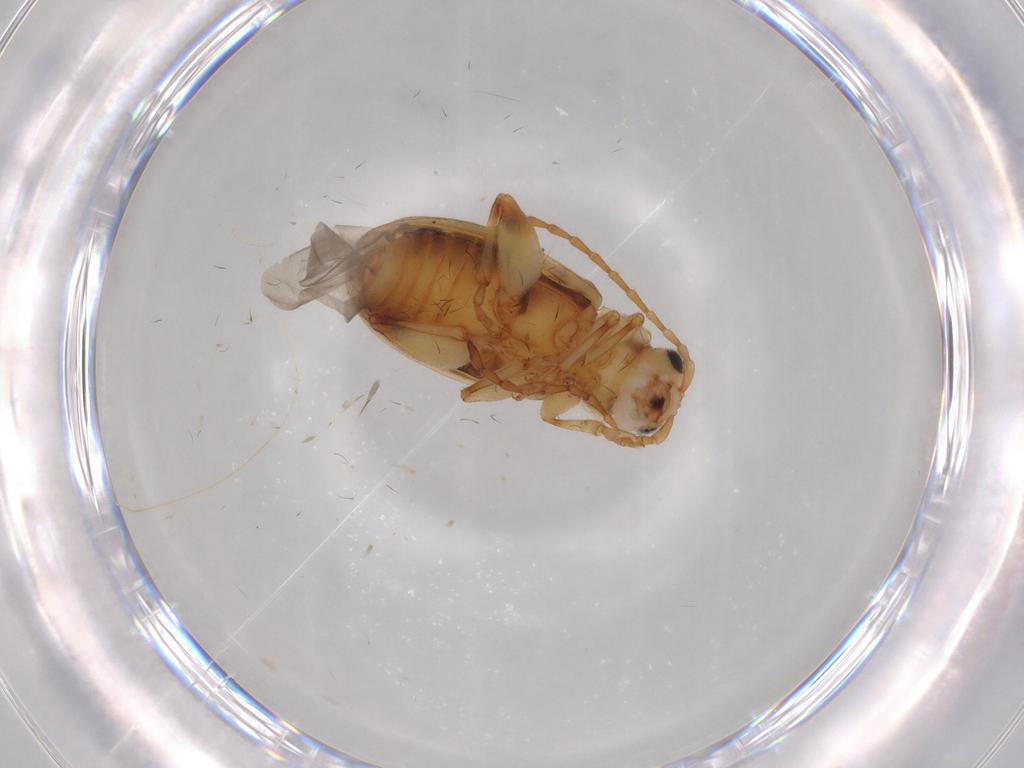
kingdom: Animalia
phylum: Arthropoda
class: Insecta
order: Coleoptera
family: Chrysomelidae
